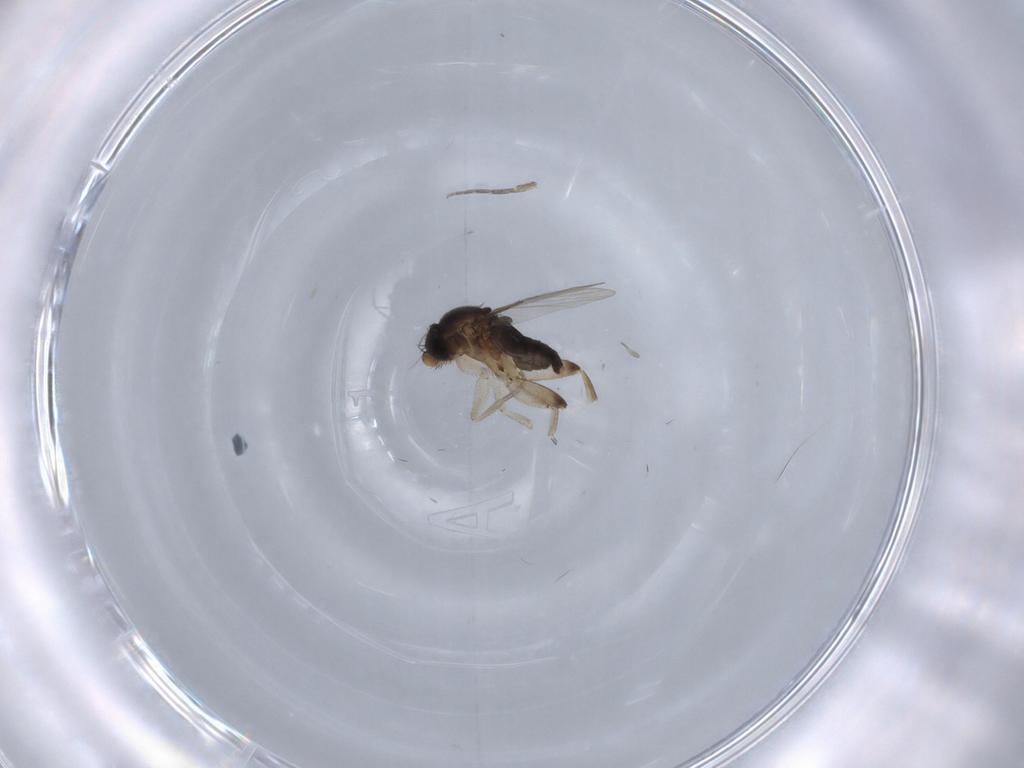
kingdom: Animalia
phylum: Arthropoda
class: Insecta
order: Diptera
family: Phoridae
